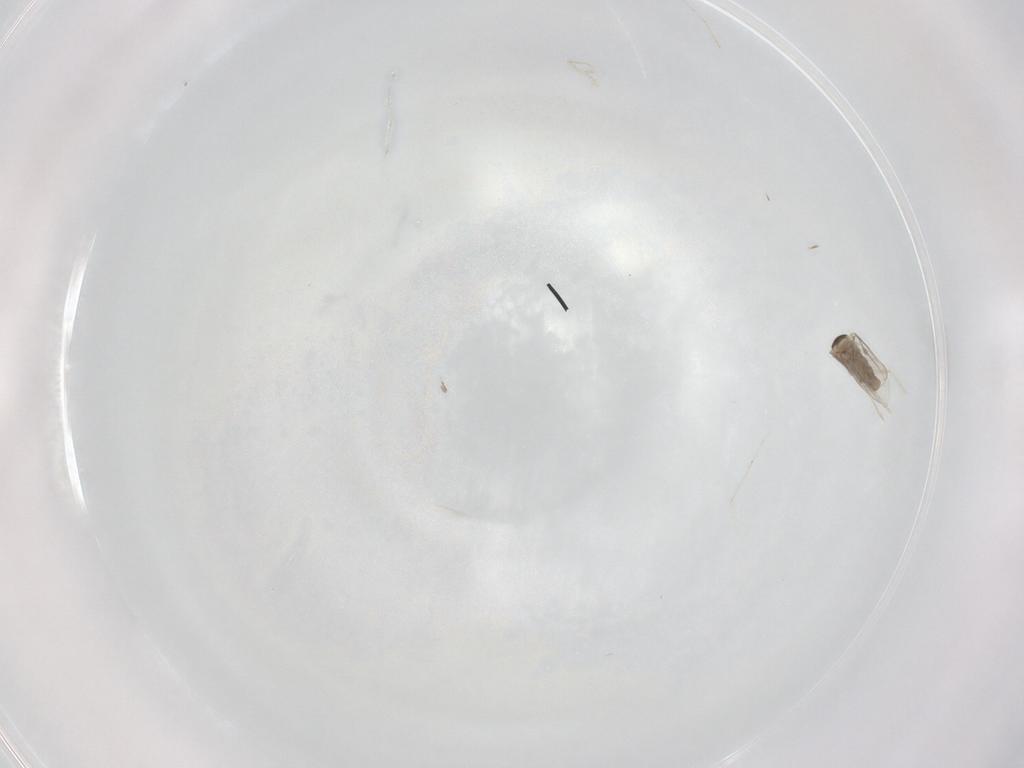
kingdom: Animalia
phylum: Arthropoda
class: Insecta
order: Diptera
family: Cecidomyiidae
